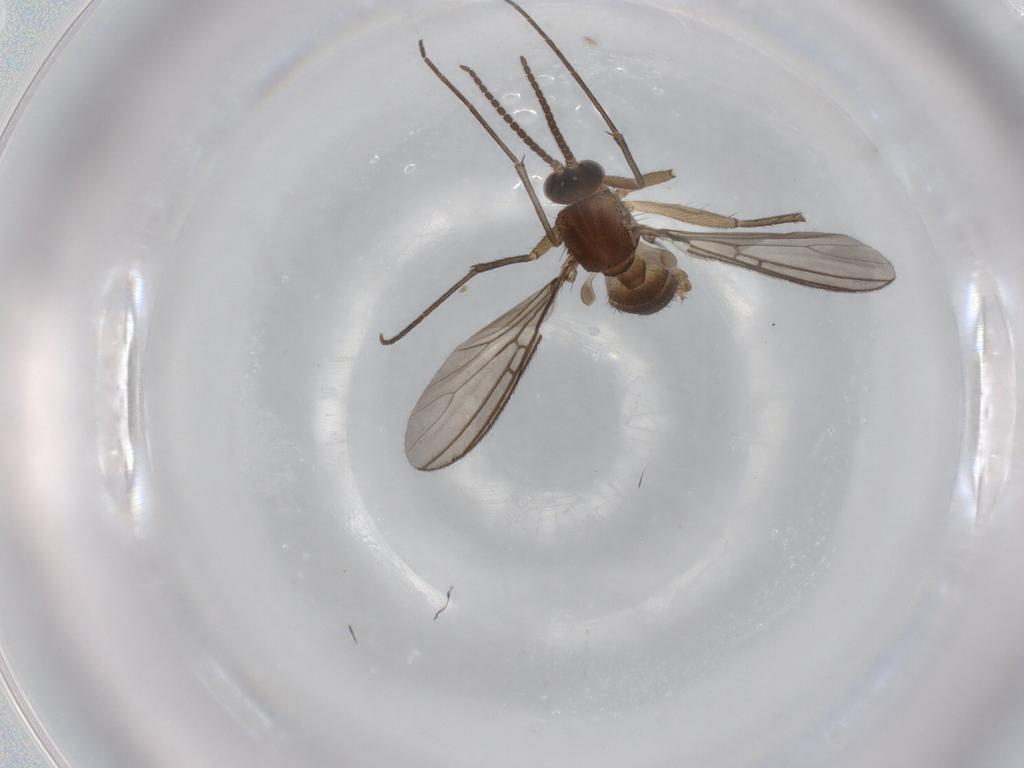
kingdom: Animalia
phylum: Arthropoda
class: Insecta
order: Diptera
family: Mycetophilidae
